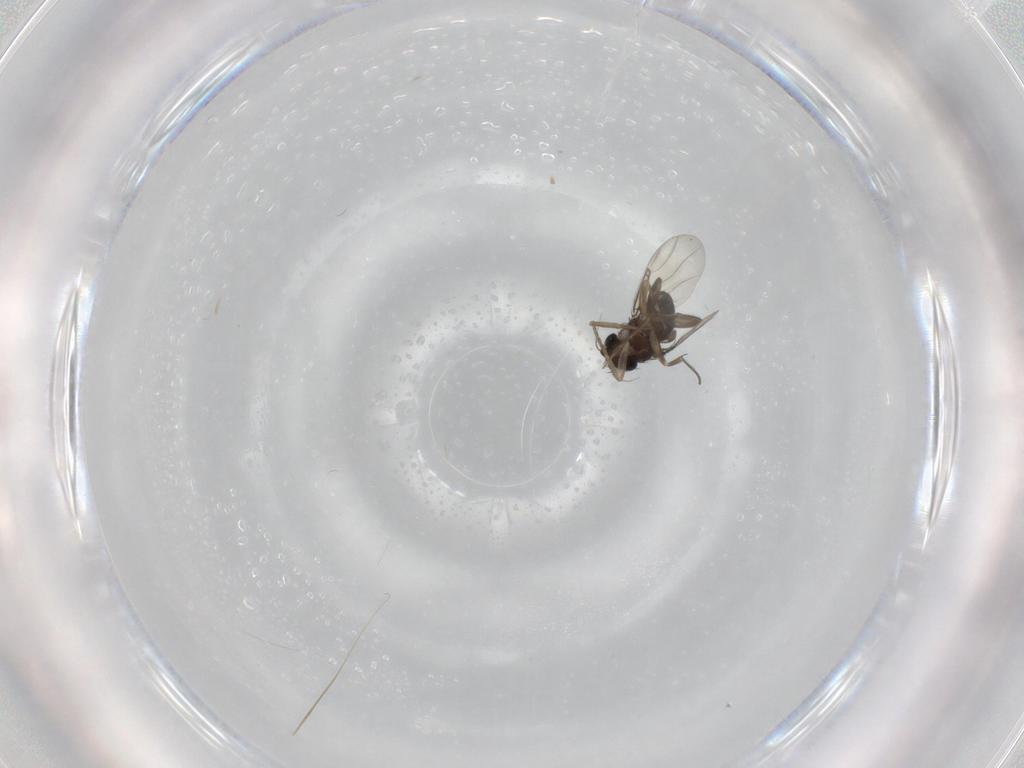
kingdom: Animalia
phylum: Arthropoda
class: Insecta
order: Diptera
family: Phoridae
